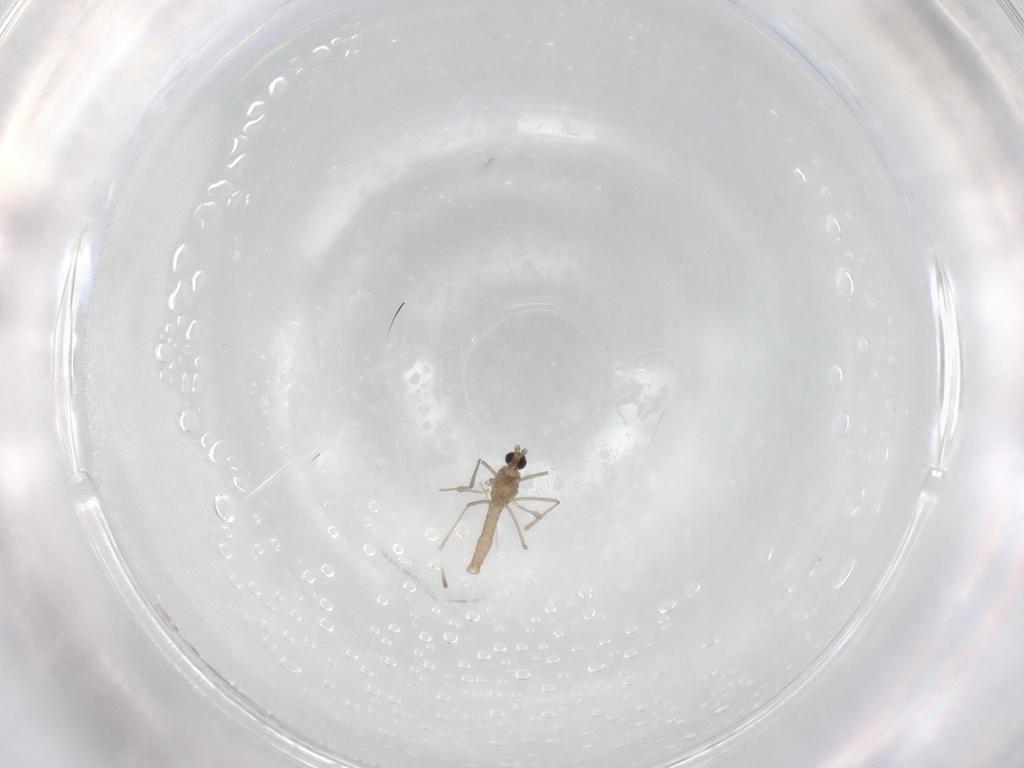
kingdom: Animalia
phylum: Arthropoda
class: Insecta
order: Diptera
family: Cecidomyiidae
